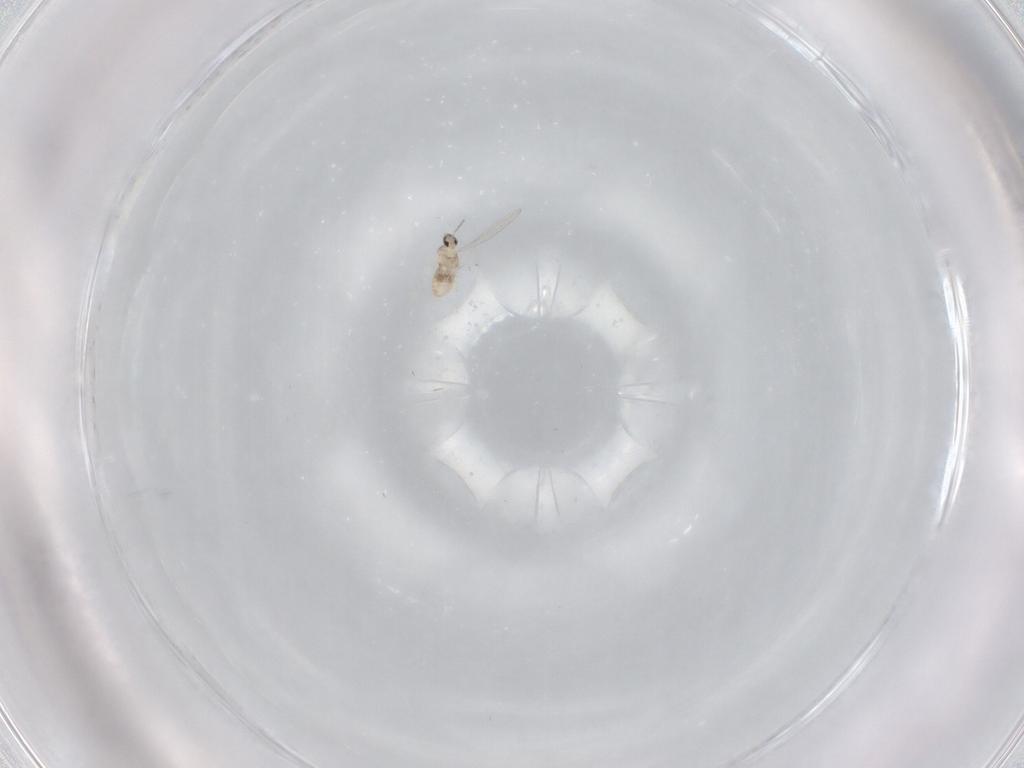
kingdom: Animalia
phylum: Arthropoda
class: Insecta
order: Diptera
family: Cecidomyiidae
